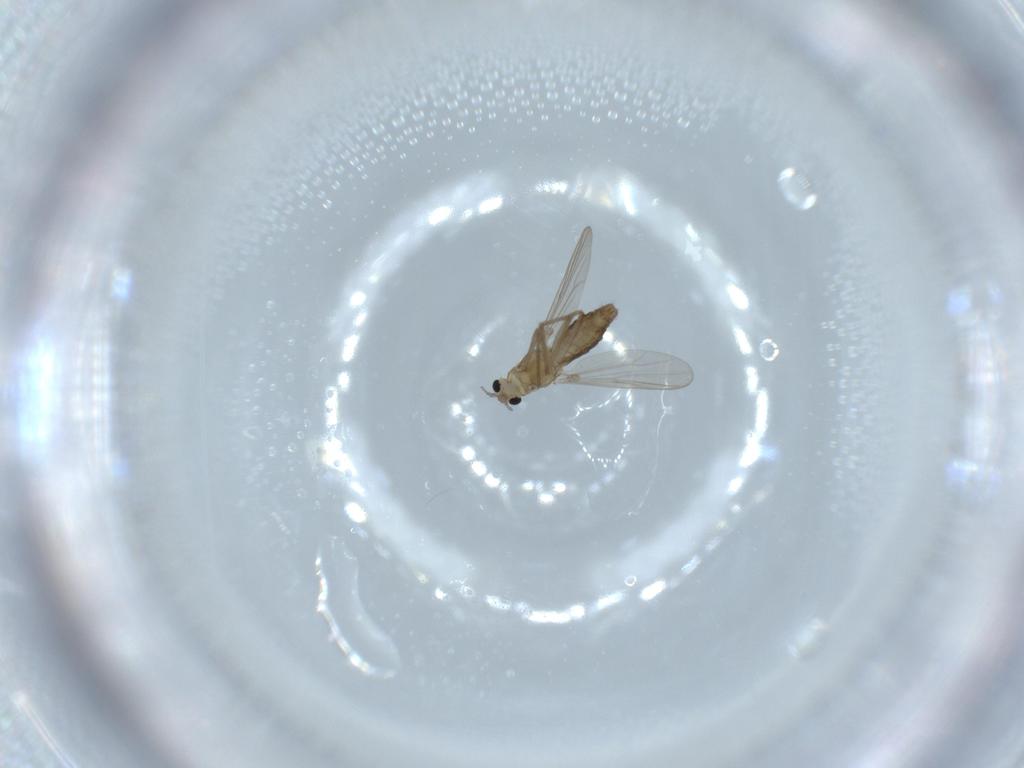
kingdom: Animalia
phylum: Arthropoda
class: Insecta
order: Diptera
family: Chironomidae
